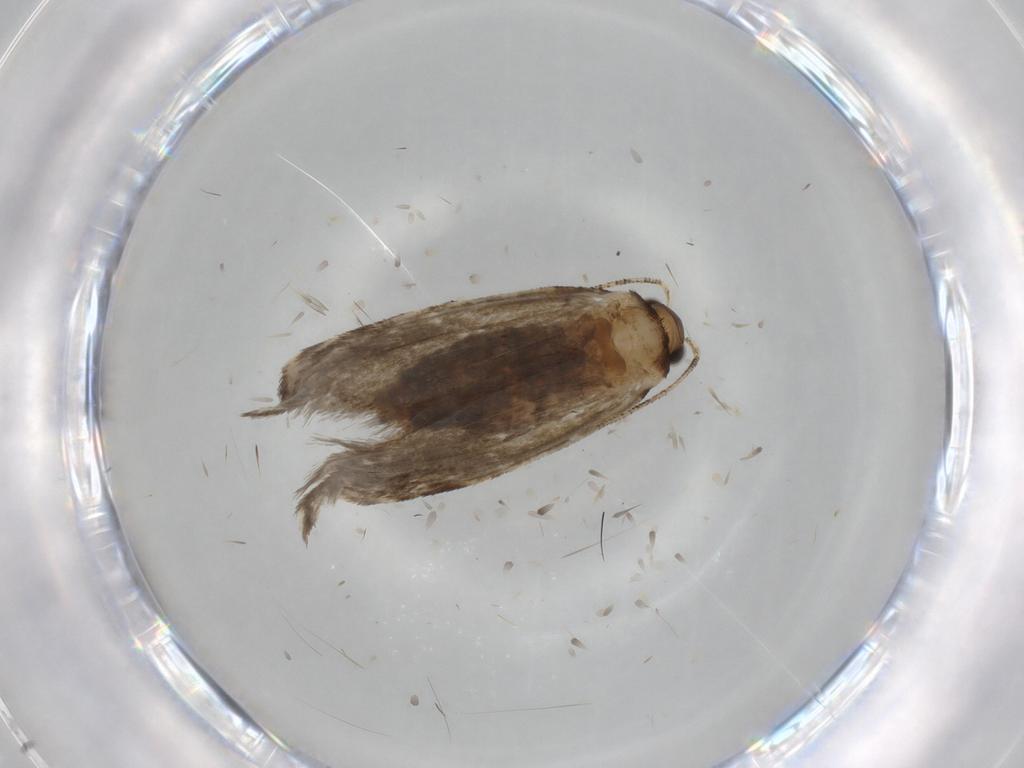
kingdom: Animalia
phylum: Arthropoda
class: Insecta
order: Lepidoptera
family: Tineidae
